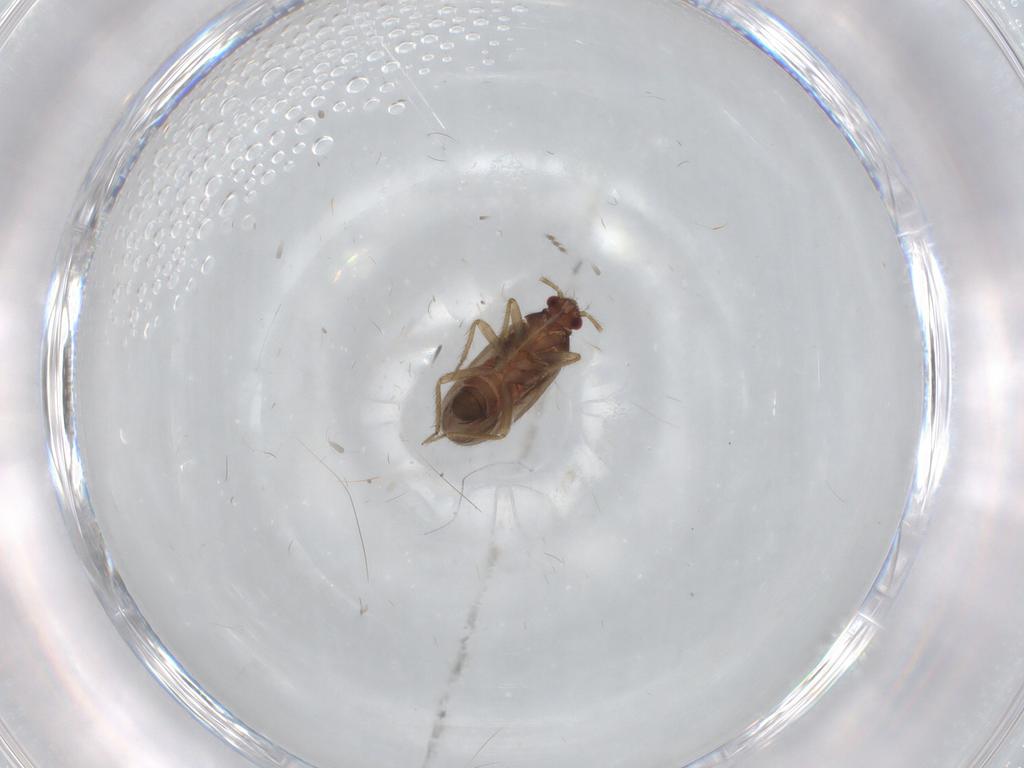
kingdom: Animalia
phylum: Arthropoda
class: Insecta
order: Hemiptera
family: Ceratocombidae
